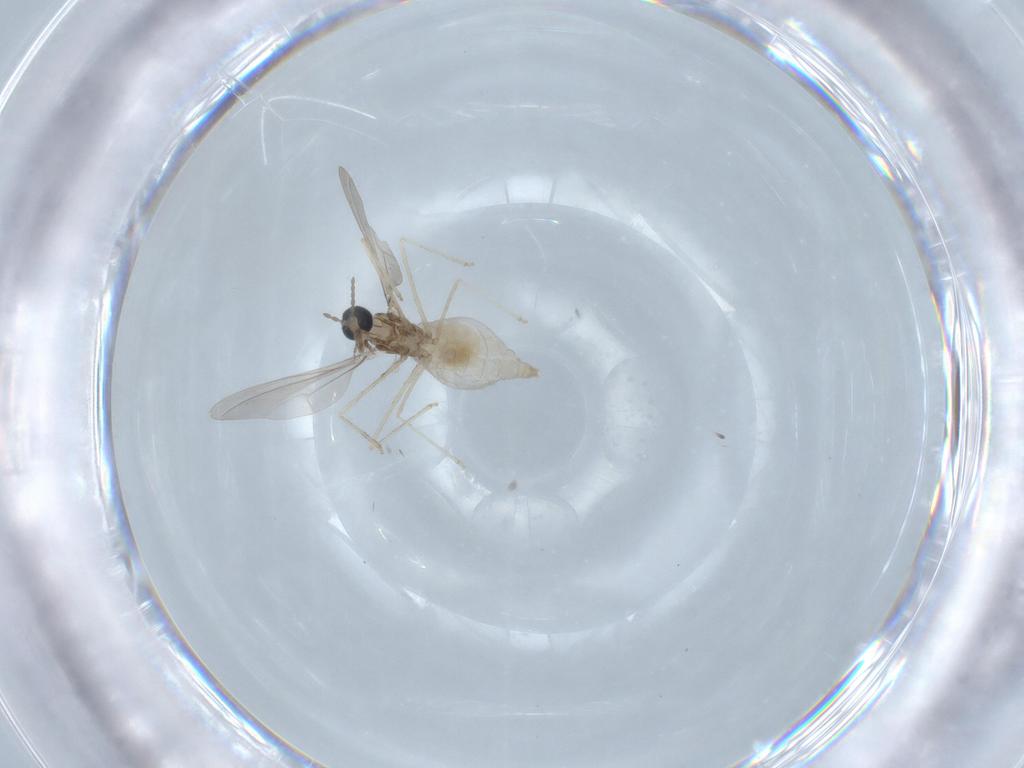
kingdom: Animalia
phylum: Arthropoda
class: Insecta
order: Diptera
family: Cecidomyiidae
